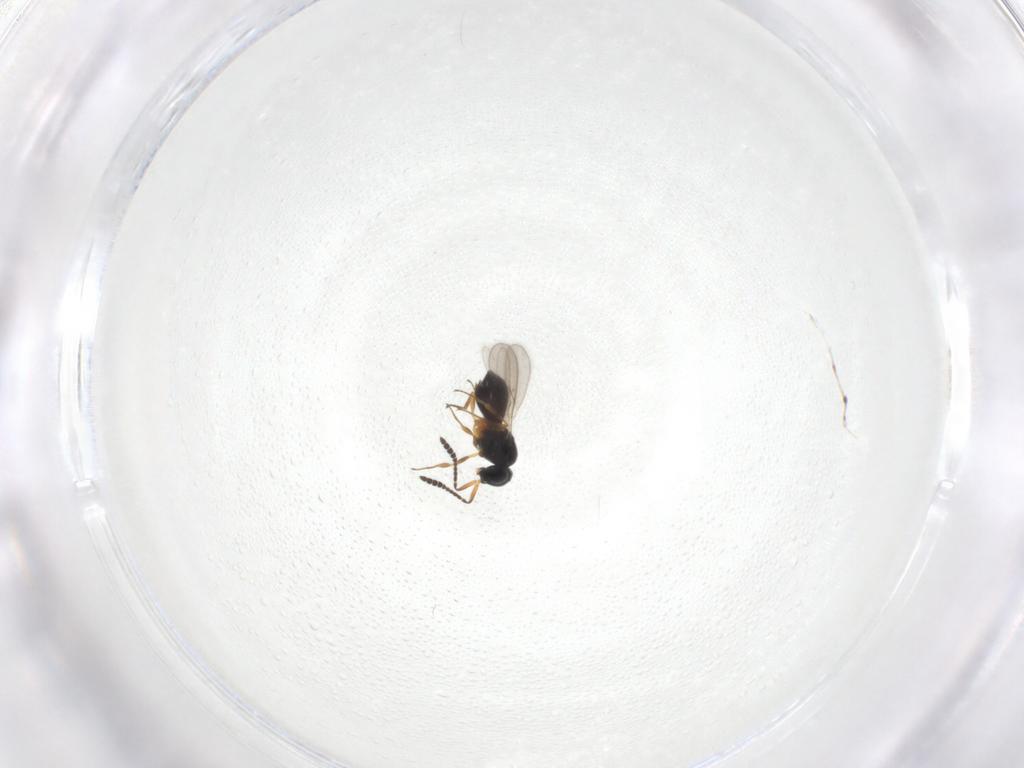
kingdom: Animalia
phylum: Arthropoda
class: Insecta
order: Hymenoptera
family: Scelionidae
